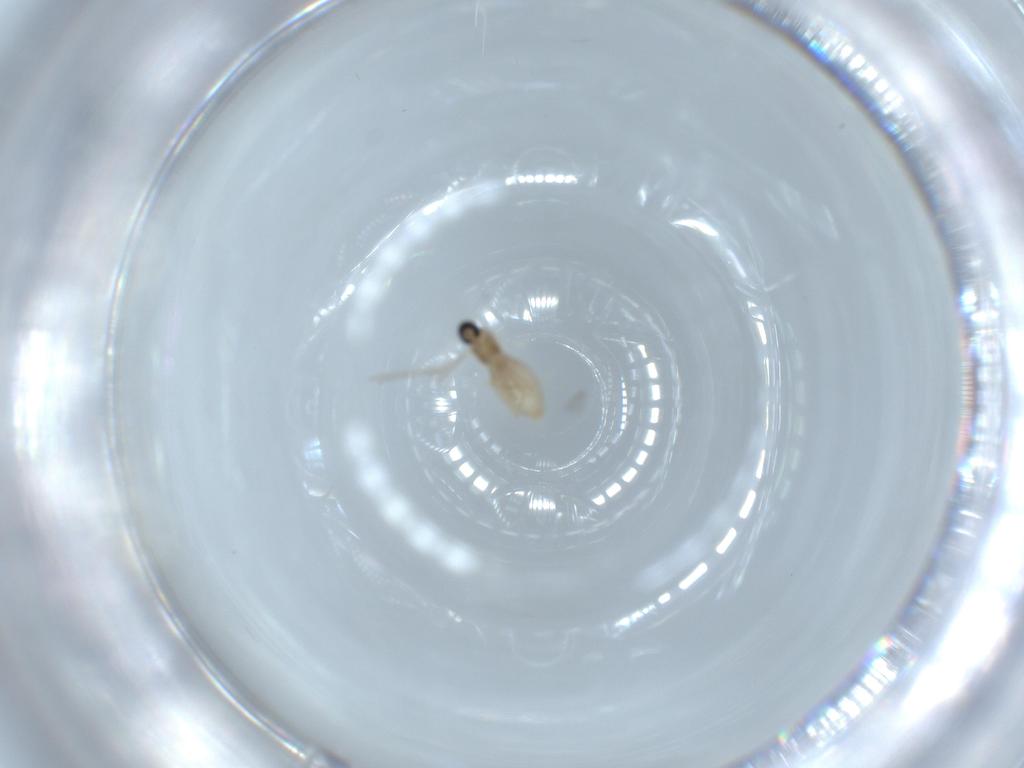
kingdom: Animalia
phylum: Arthropoda
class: Insecta
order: Diptera
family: Cecidomyiidae
